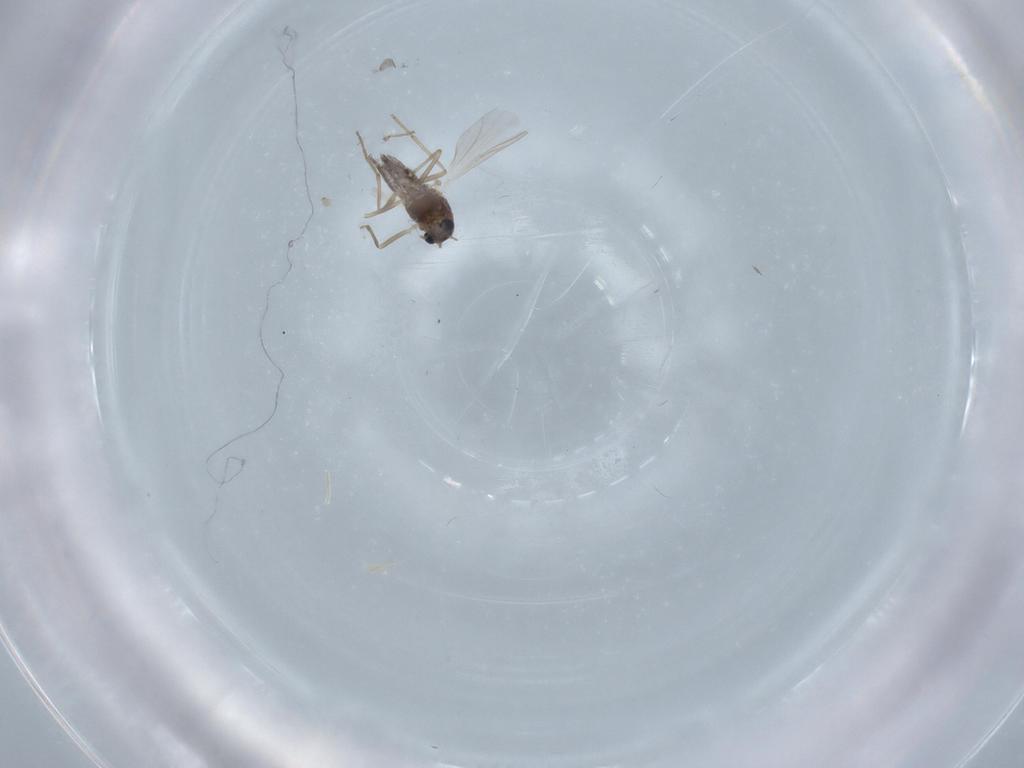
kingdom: Animalia
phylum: Arthropoda
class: Insecta
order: Diptera
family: Chironomidae
